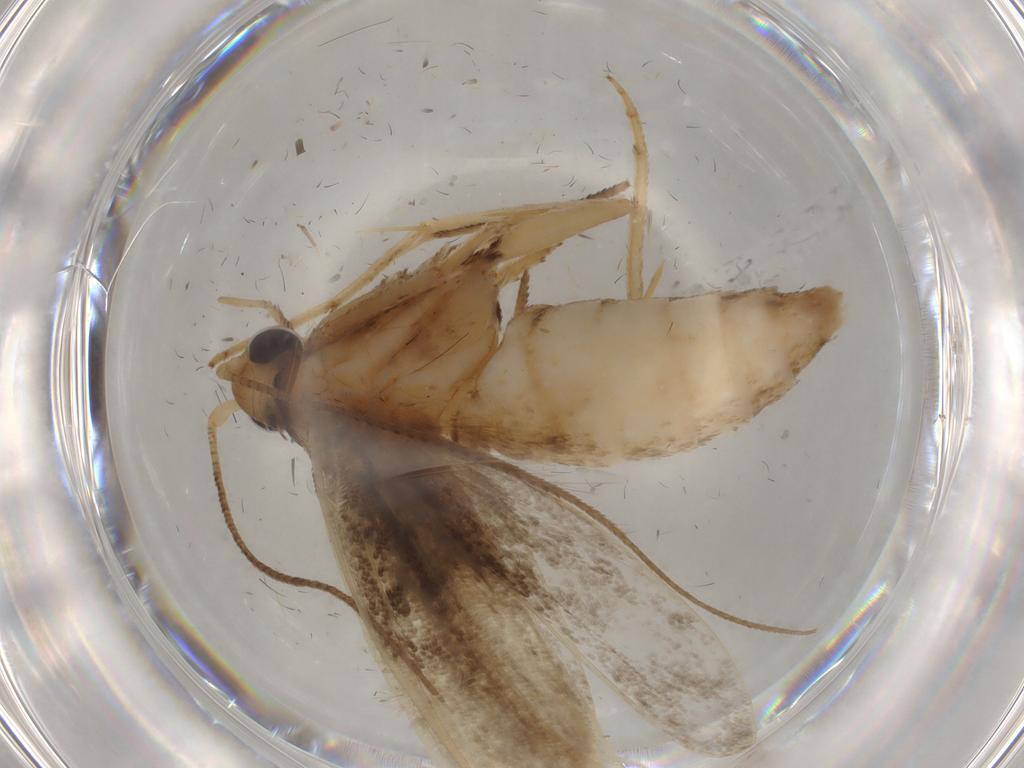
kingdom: Animalia
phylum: Arthropoda
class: Insecta
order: Lepidoptera
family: Yponomeutidae
